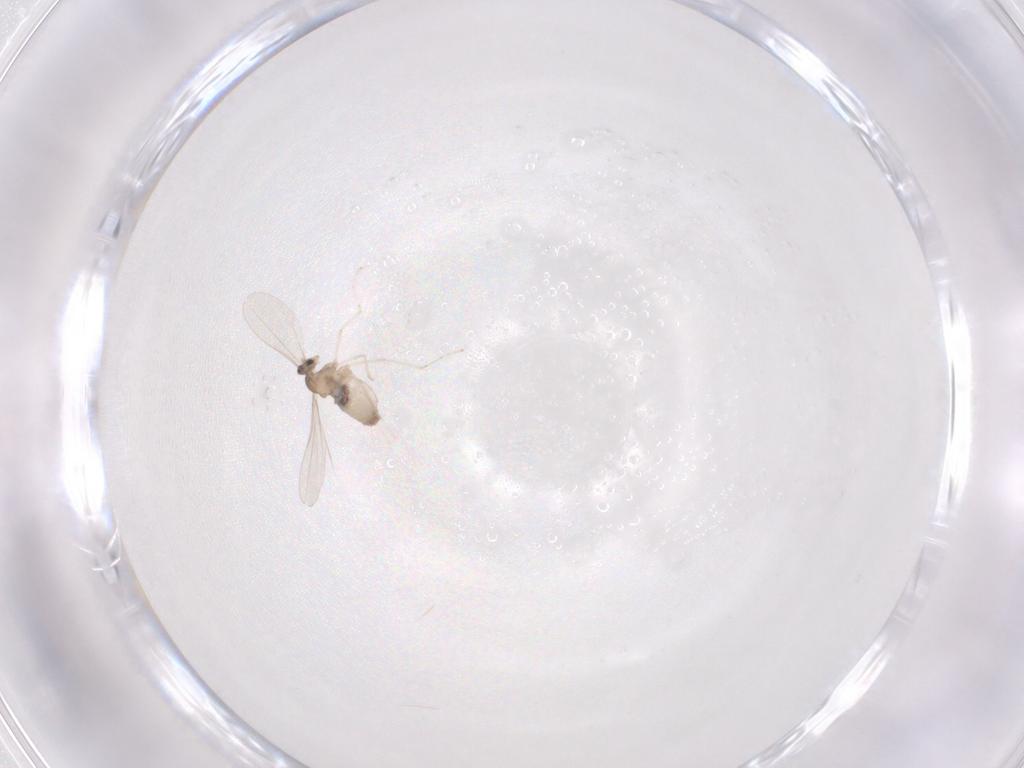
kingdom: Animalia
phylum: Arthropoda
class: Insecta
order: Diptera
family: Cecidomyiidae
